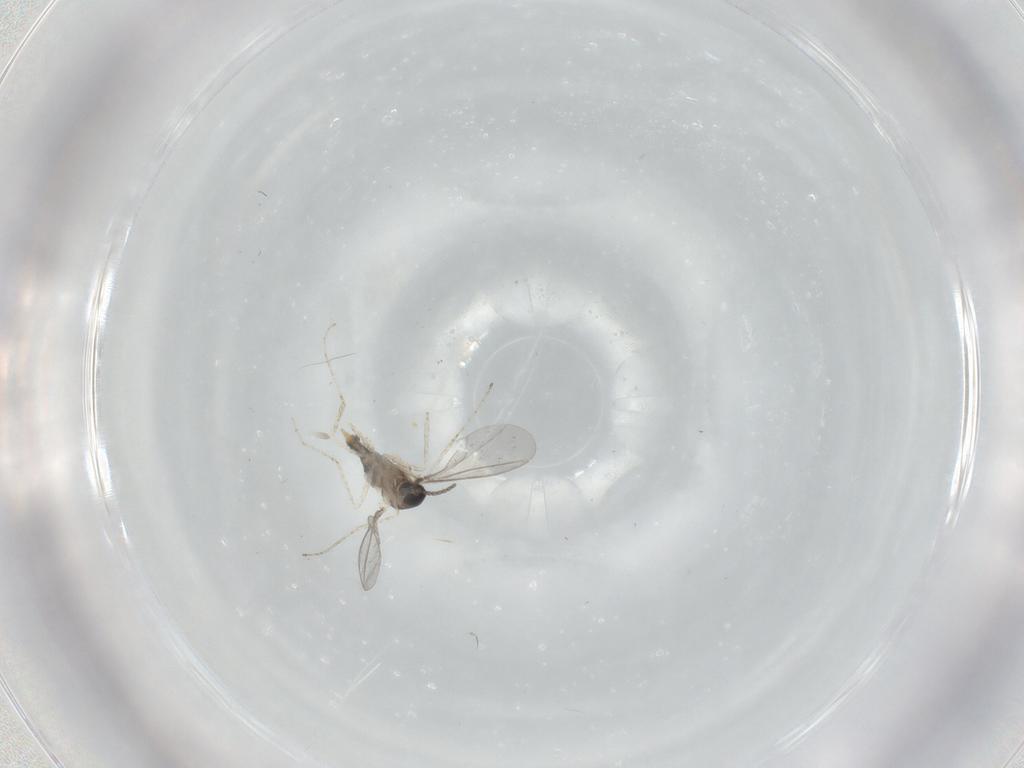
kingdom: Animalia
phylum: Arthropoda
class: Insecta
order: Diptera
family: Cecidomyiidae
